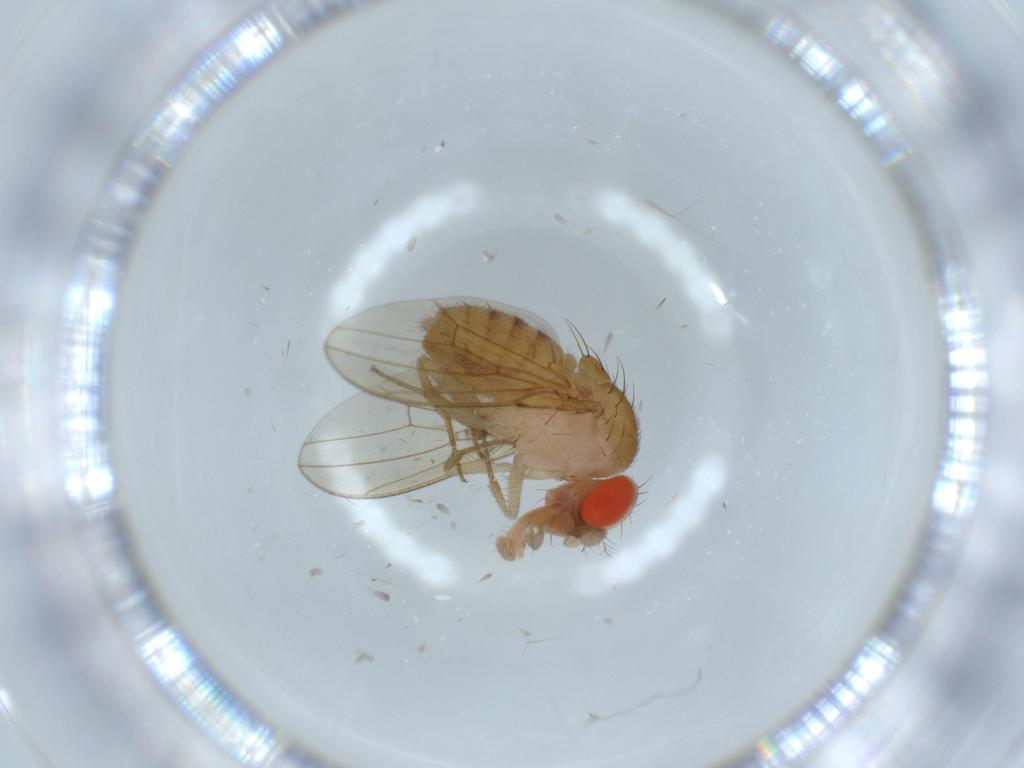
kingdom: Animalia
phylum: Arthropoda
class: Insecta
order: Diptera
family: Drosophilidae
